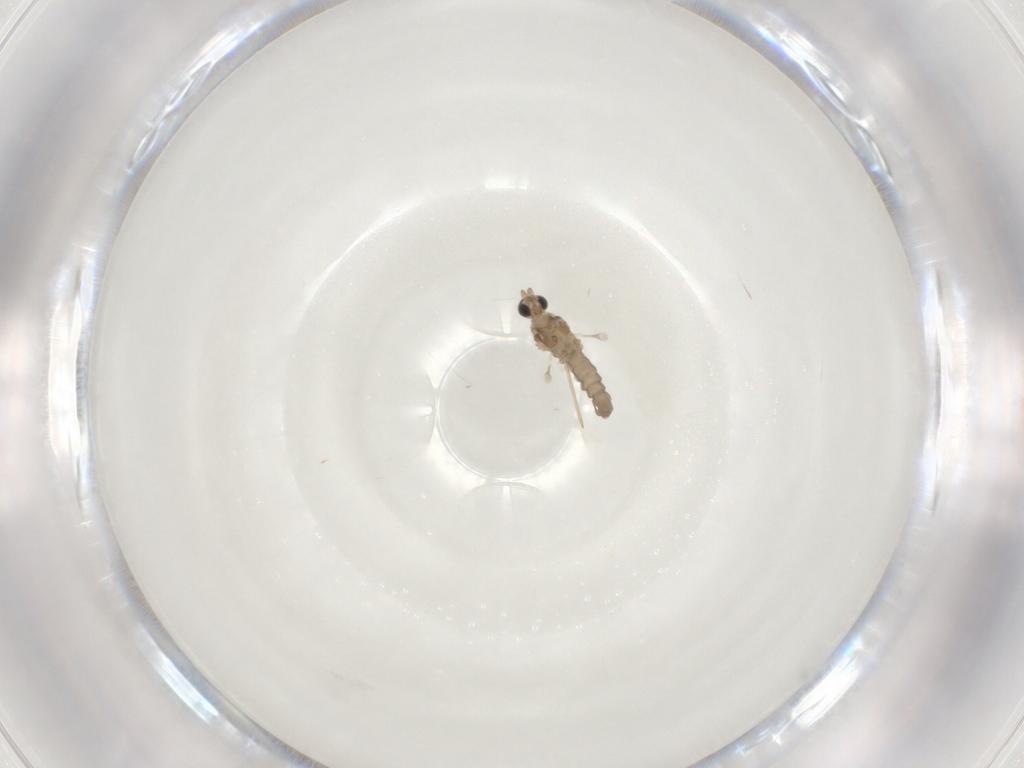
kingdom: Animalia
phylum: Arthropoda
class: Insecta
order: Diptera
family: Cecidomyiidae
